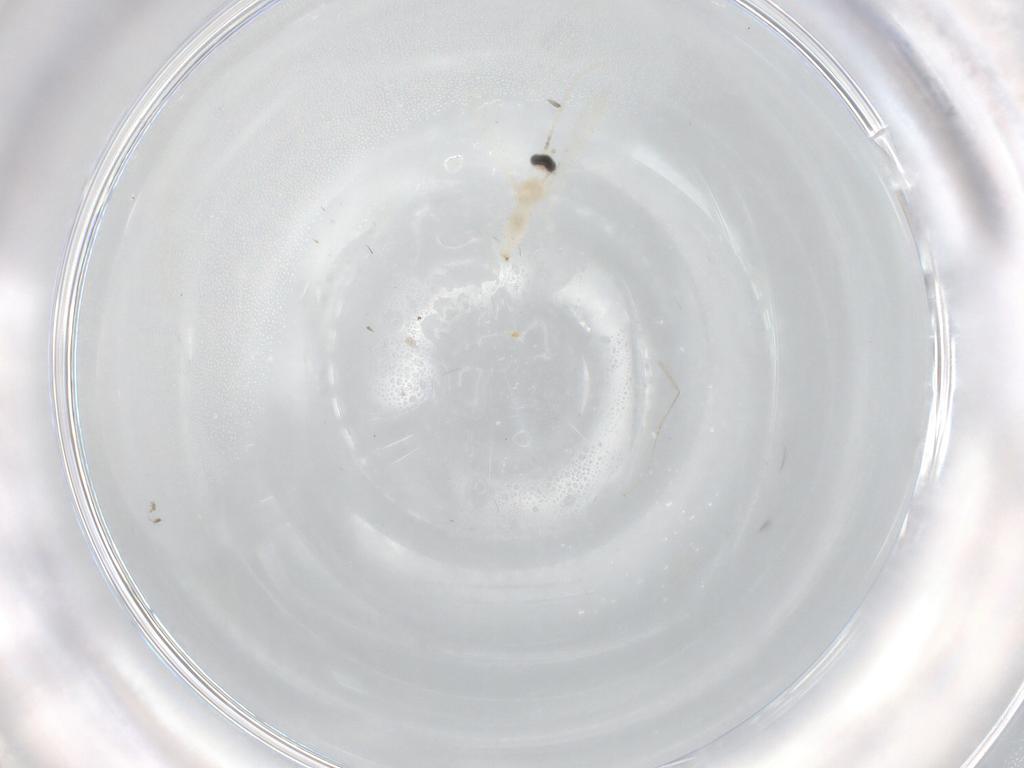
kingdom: Animalia
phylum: Arthropoda
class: Insecta
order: Diptera
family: Cecidomyiidae
